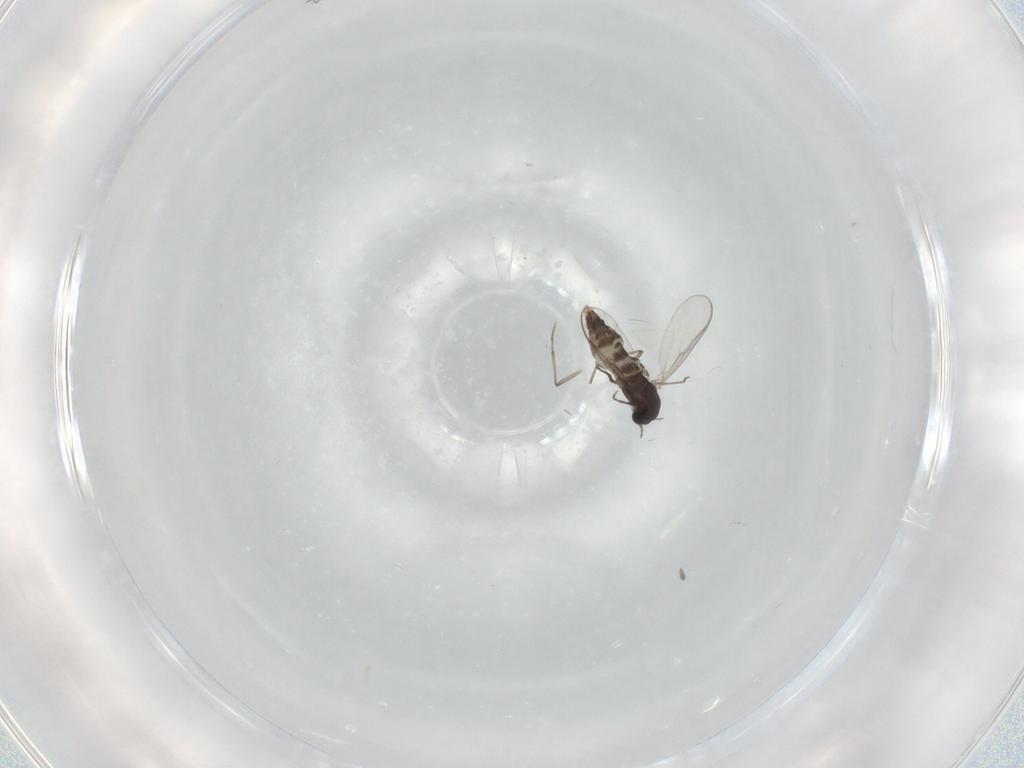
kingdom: Animalia
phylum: Arthropoda
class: Insecta
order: Diptera
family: Chironomidae
